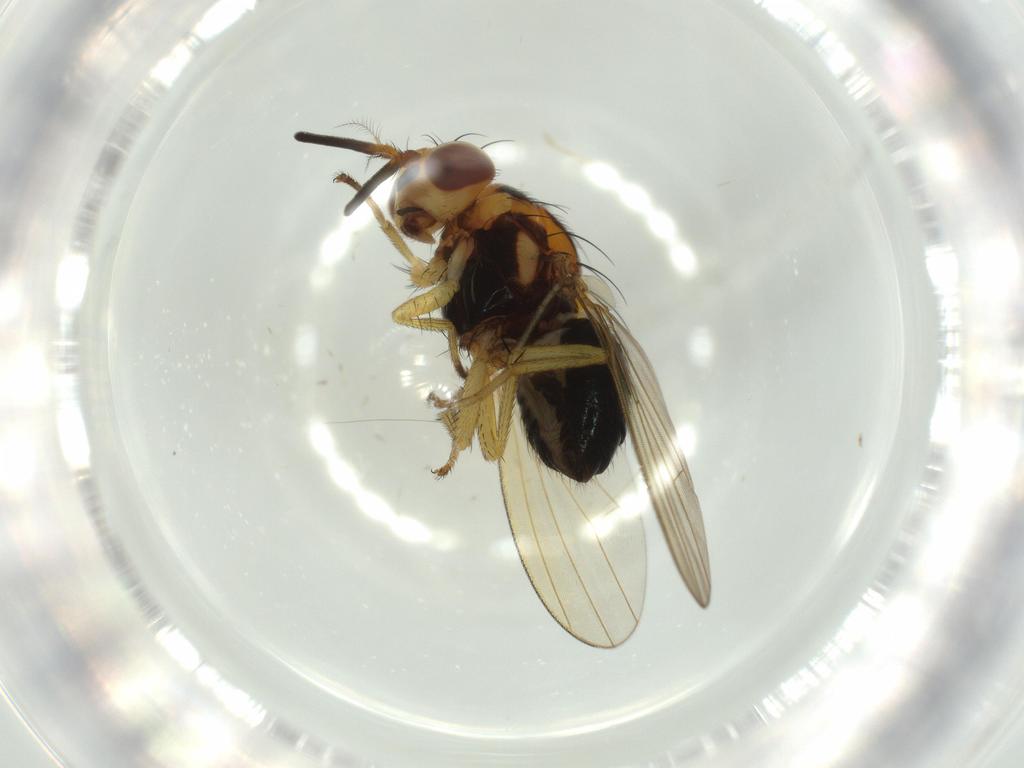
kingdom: Animalia
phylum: Arthropoda
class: Insecta
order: Diptera
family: Lauxaniidae
